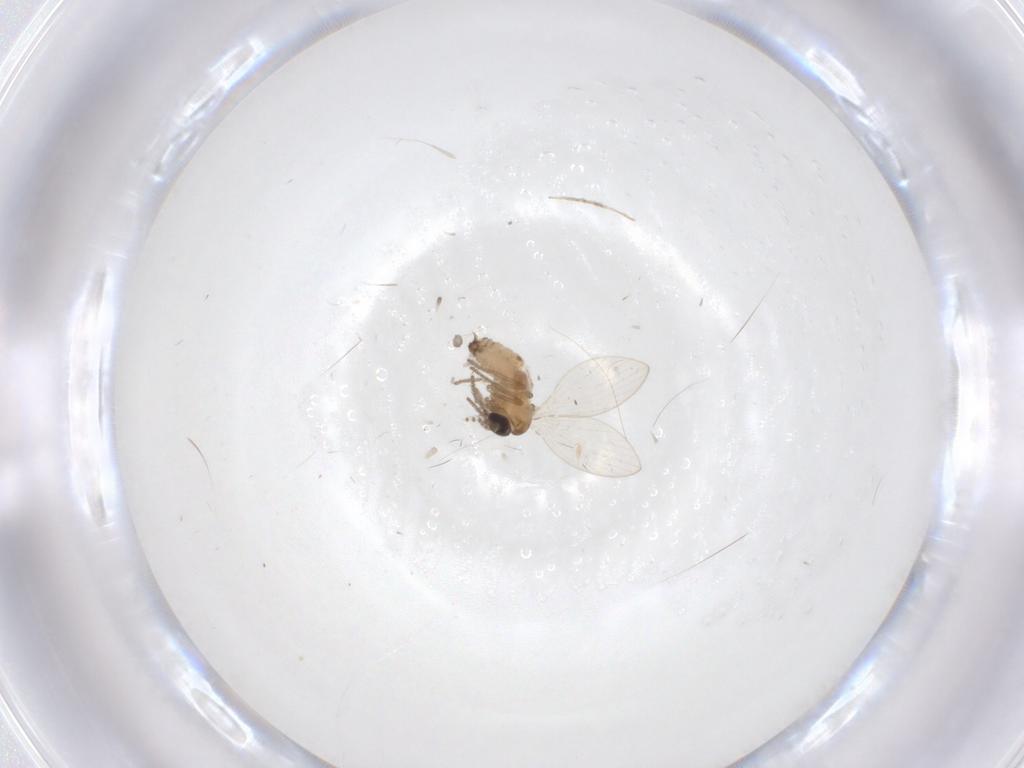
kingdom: Animalia
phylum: Arthropoda
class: Insecta
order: Diptera
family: Psychodidae
